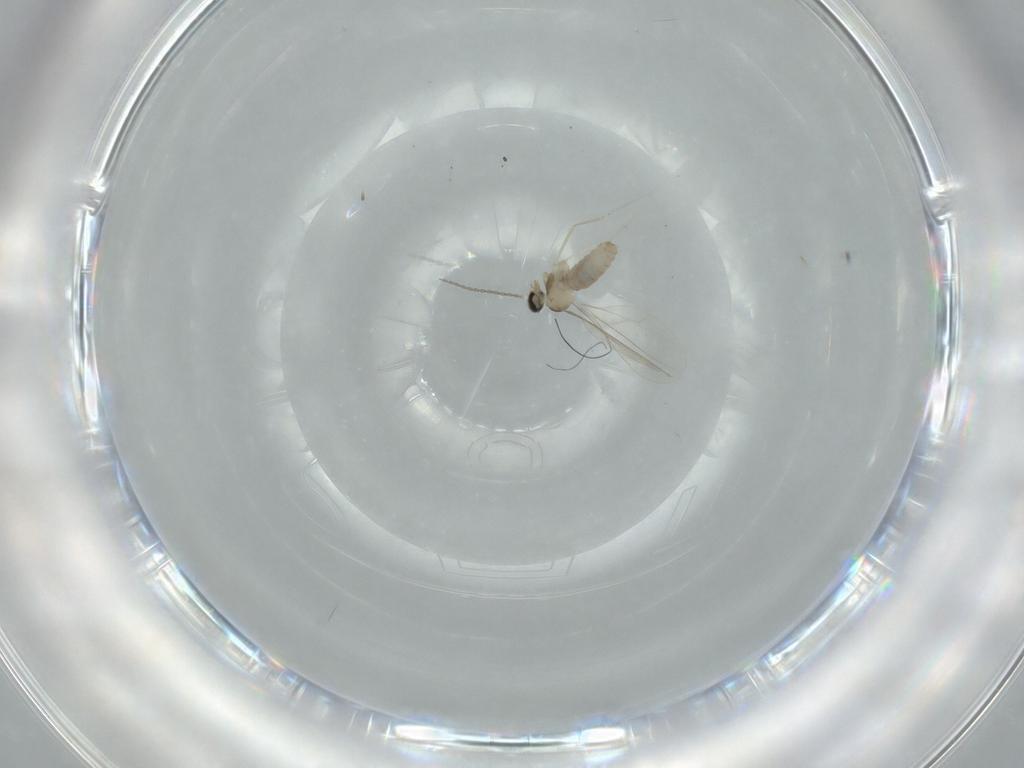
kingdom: Animalia
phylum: Arthropoda
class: Insecta
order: Diptera
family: Cecidomyiidae
